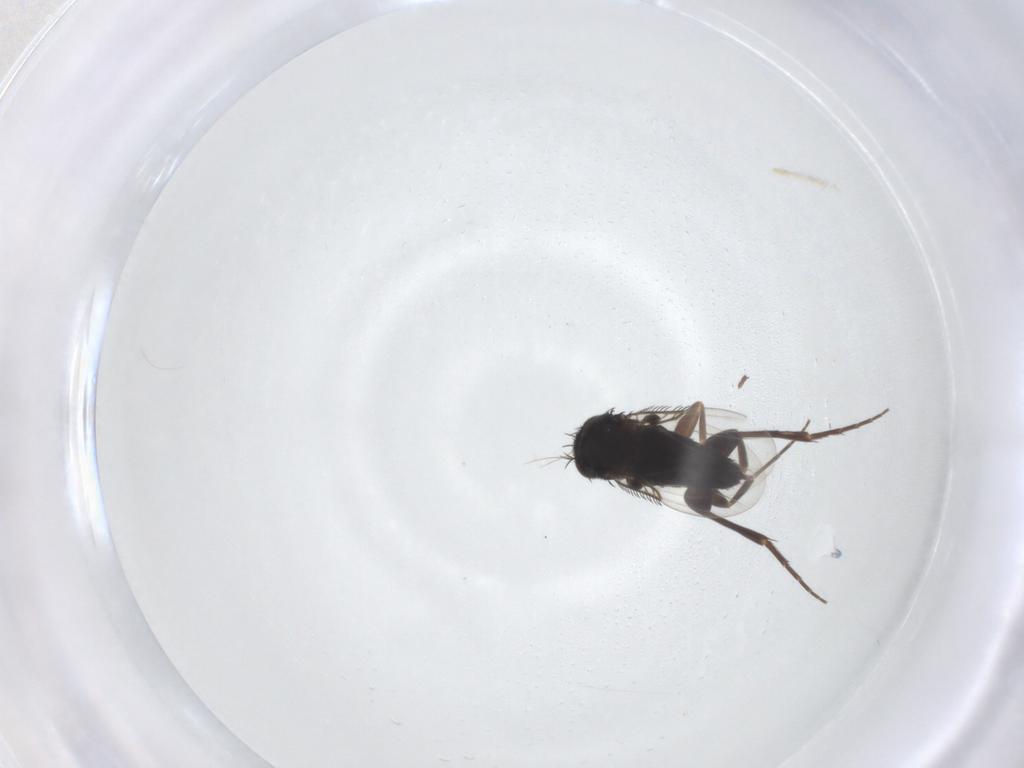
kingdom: Animalia
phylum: Arthropoda
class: Insecta
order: Diptera
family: Phoridae
